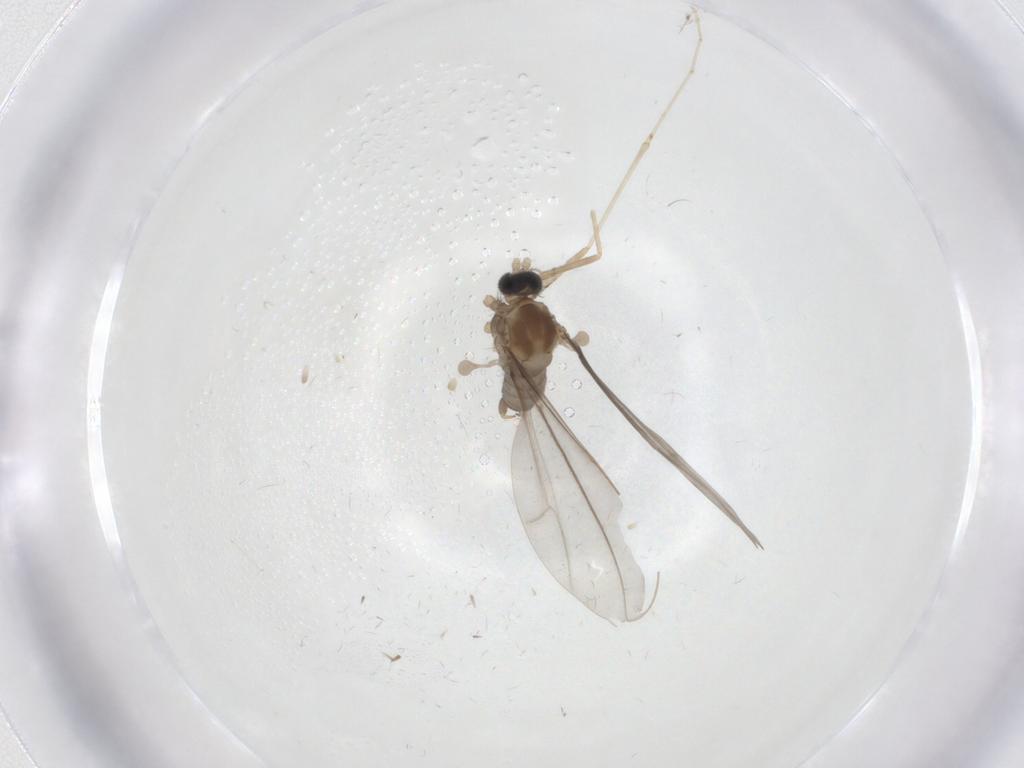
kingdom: Animalia
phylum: Arthropoda
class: Insecta
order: Diptera
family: Cecidomyiidae
